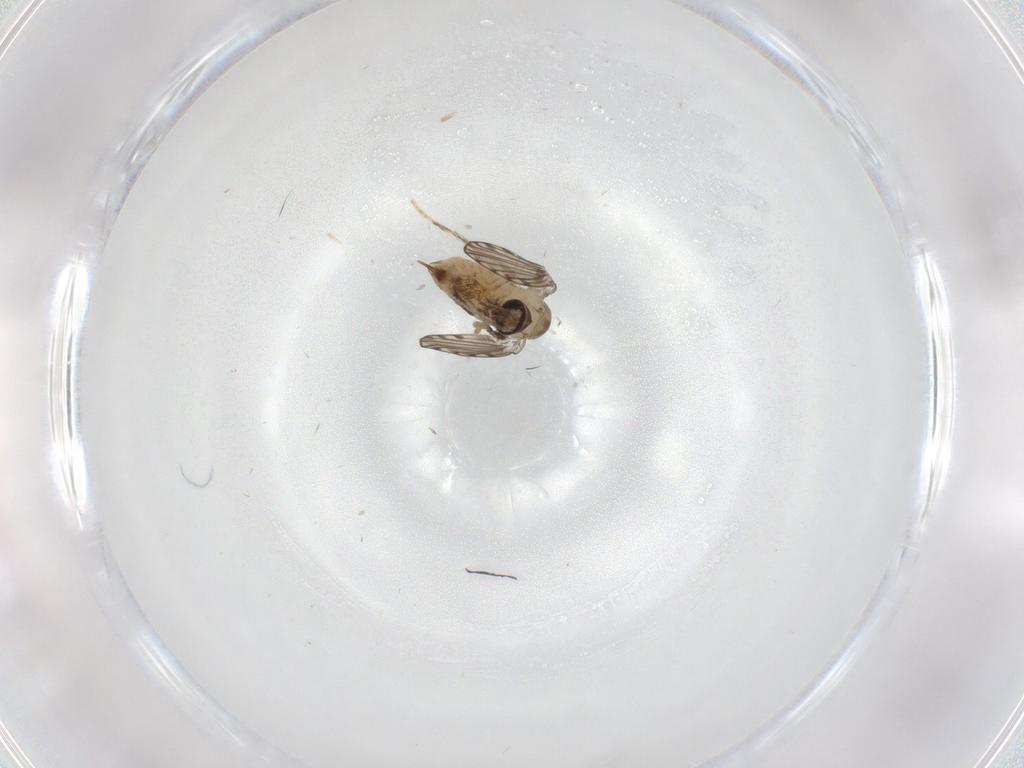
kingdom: Animalia
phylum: Arthropoda
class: Insecta
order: Diptera
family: Psychodidae
